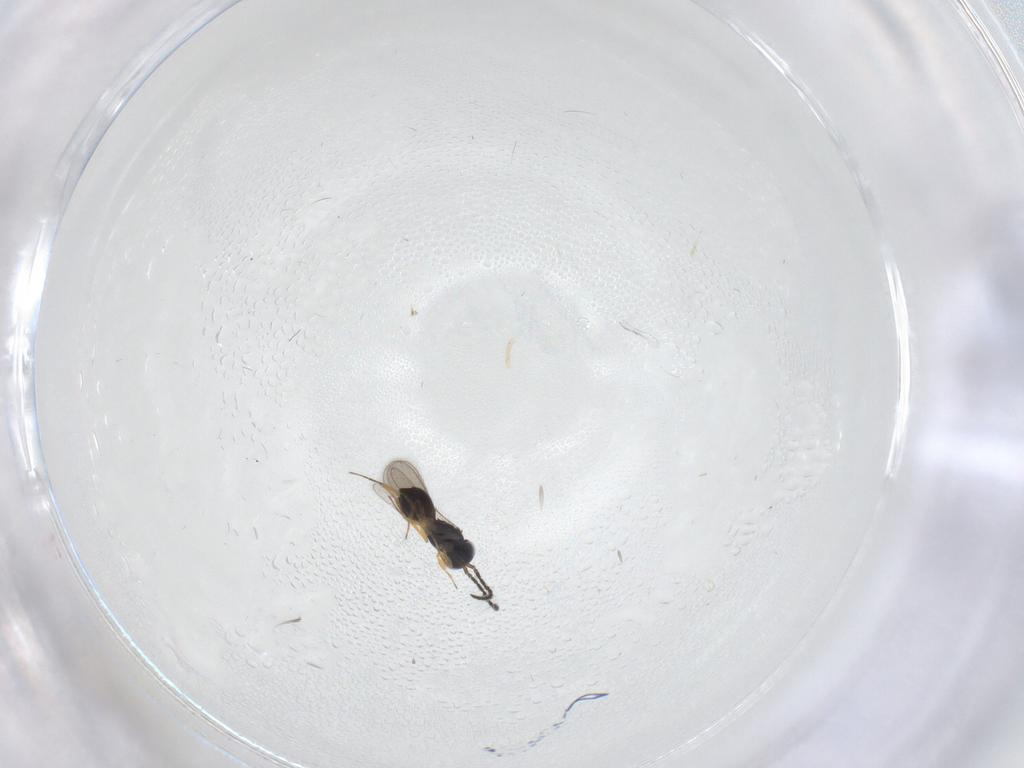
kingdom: Animalia
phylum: Arthropoda
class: Insecta
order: Hymenoptera
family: Scelionidae
